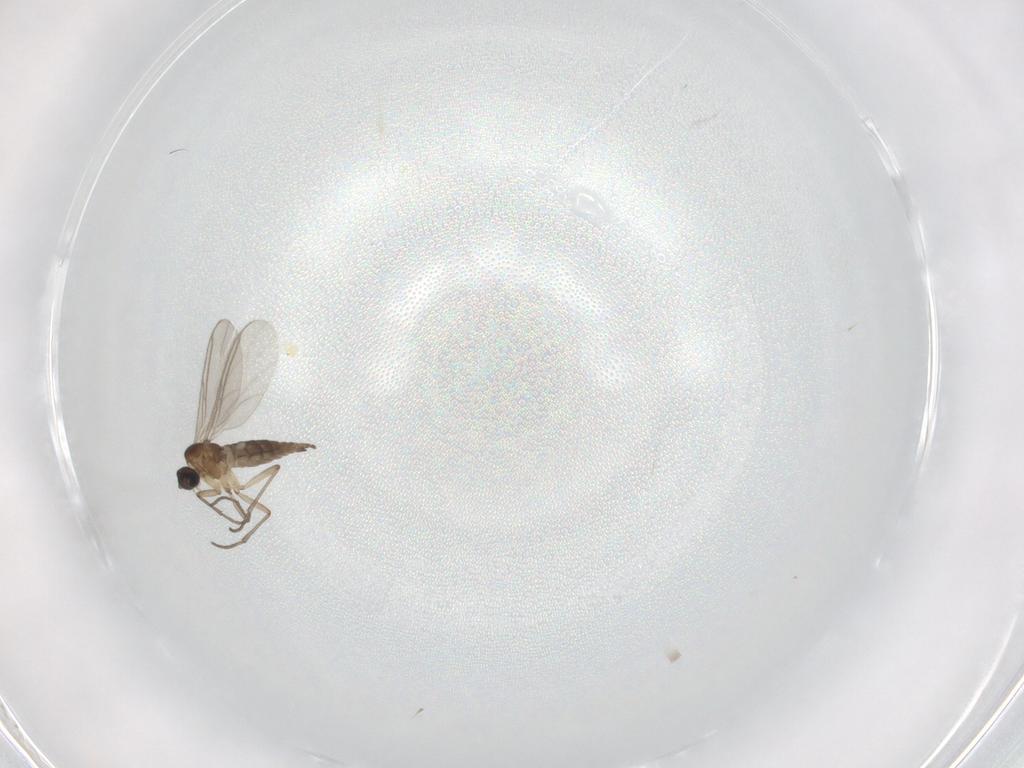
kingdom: Animalia
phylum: Arthropoda
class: Insecta
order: Diptera
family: Sciaridae
